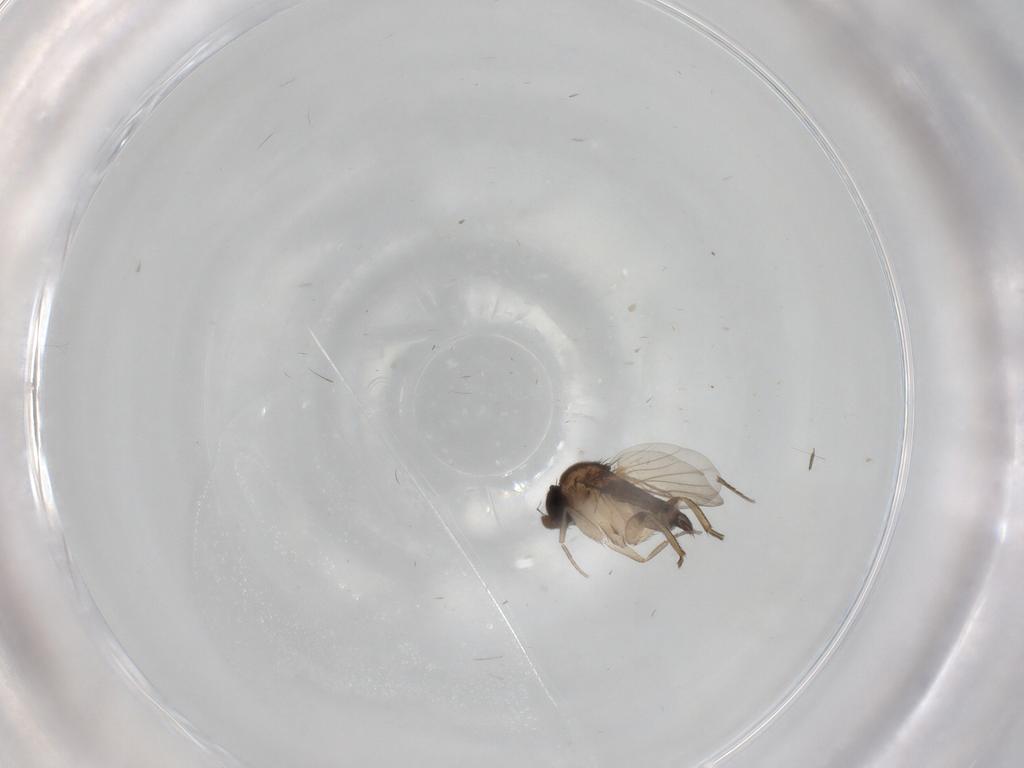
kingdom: Animalia
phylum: Arthropoda
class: Insecta
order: Diptera
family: Phoridae
